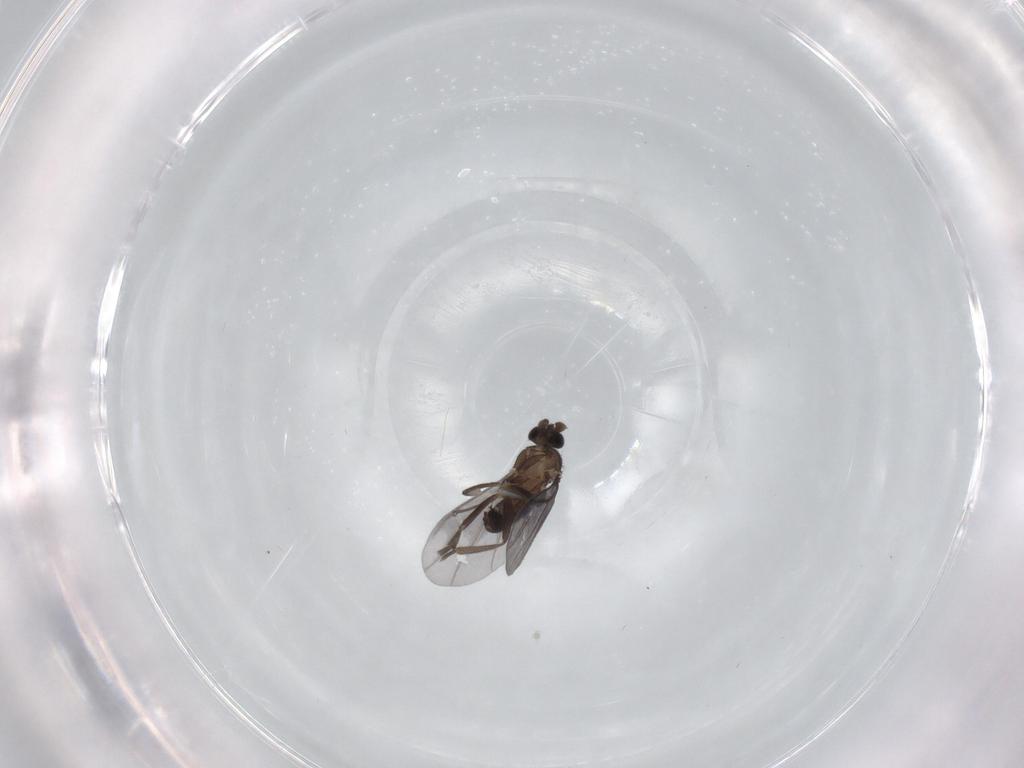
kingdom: Animalia
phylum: Arthropoda
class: Insecta
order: Diptera
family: Phoridae
